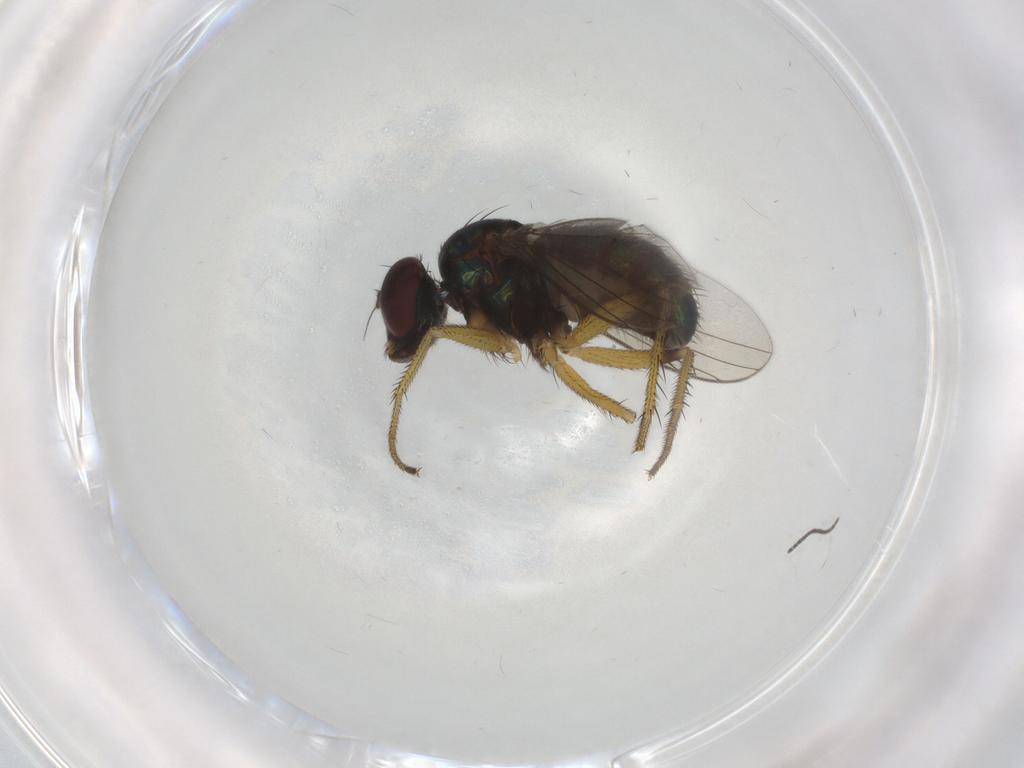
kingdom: Animalia
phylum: Arthropoda
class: Insecta
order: Diptera
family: Dolichopodidae
